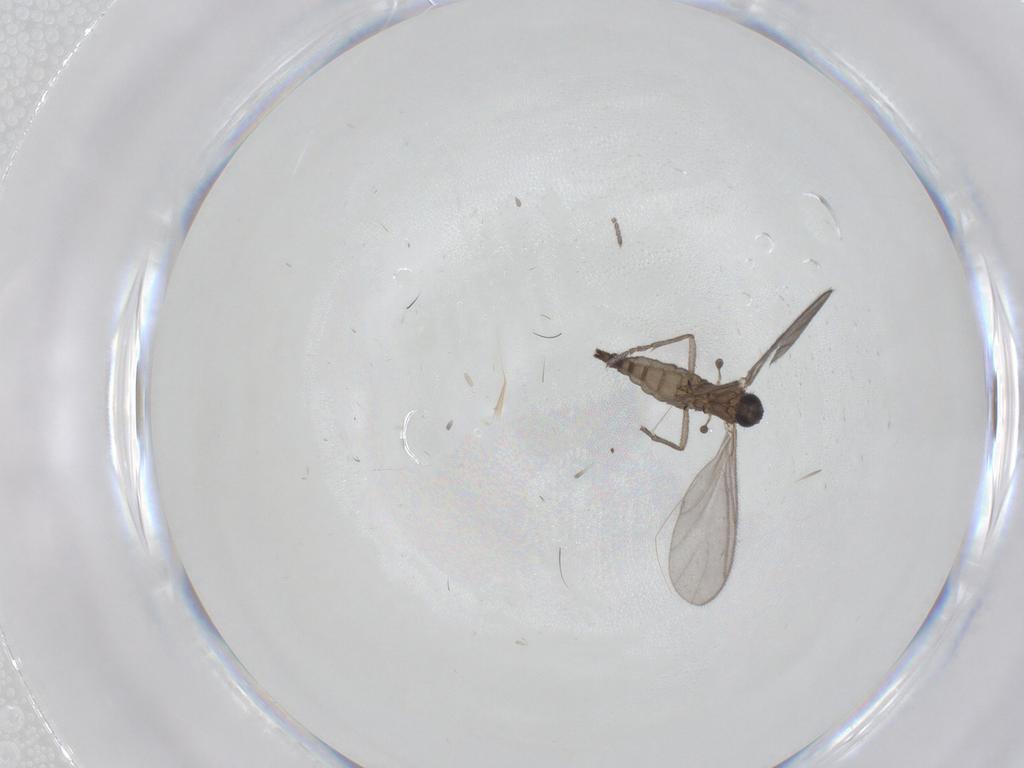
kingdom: Animalia
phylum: Arthropoda
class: Insecta
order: Diptera
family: Sciaridae
